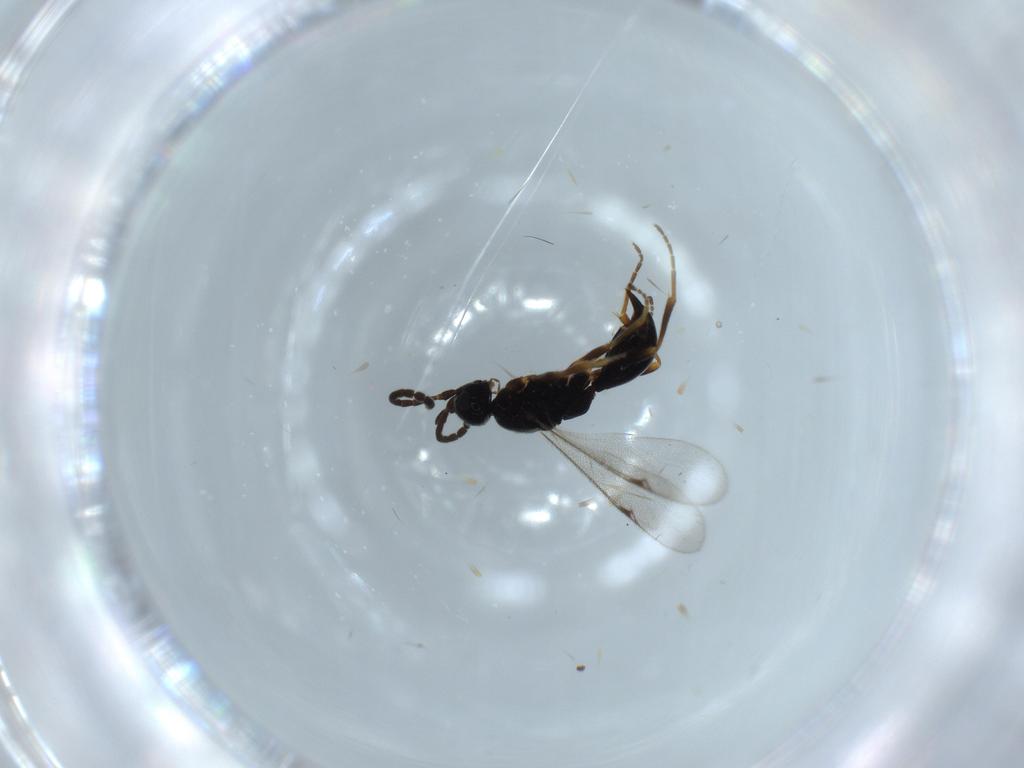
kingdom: Animalia
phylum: Arthropoda
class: Insecta
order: Hymenoptera
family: Proctotrupidae
